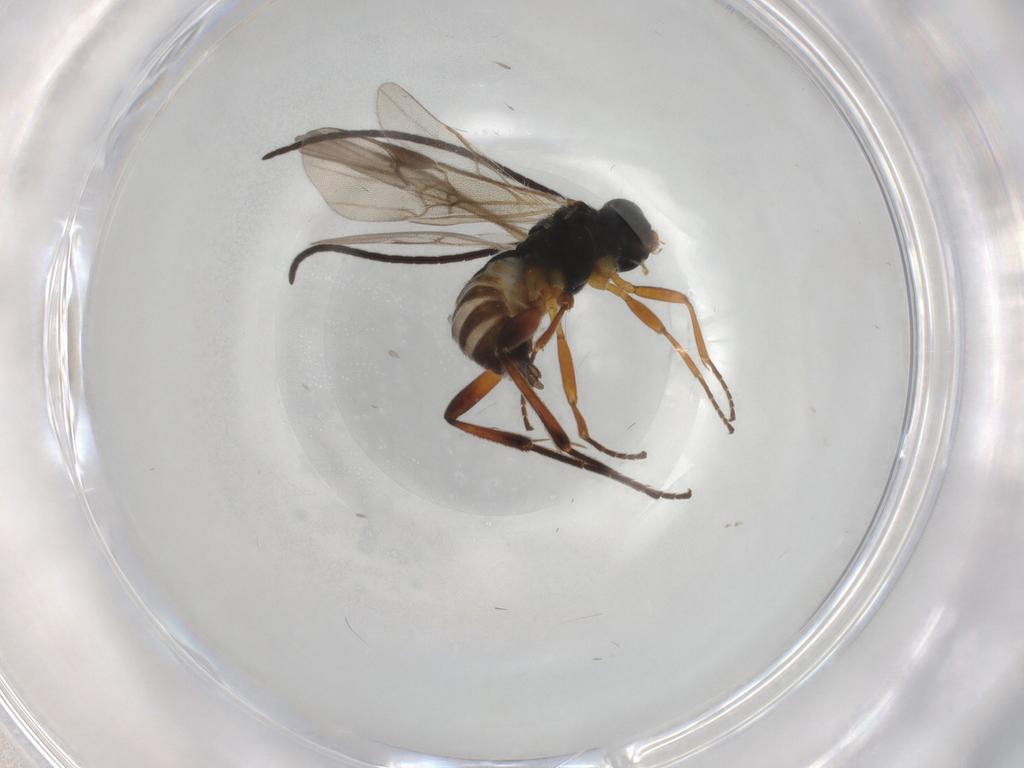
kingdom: Animalia
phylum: Arthropoda
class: Insecta
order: Hymenoptera
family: Braconidae
